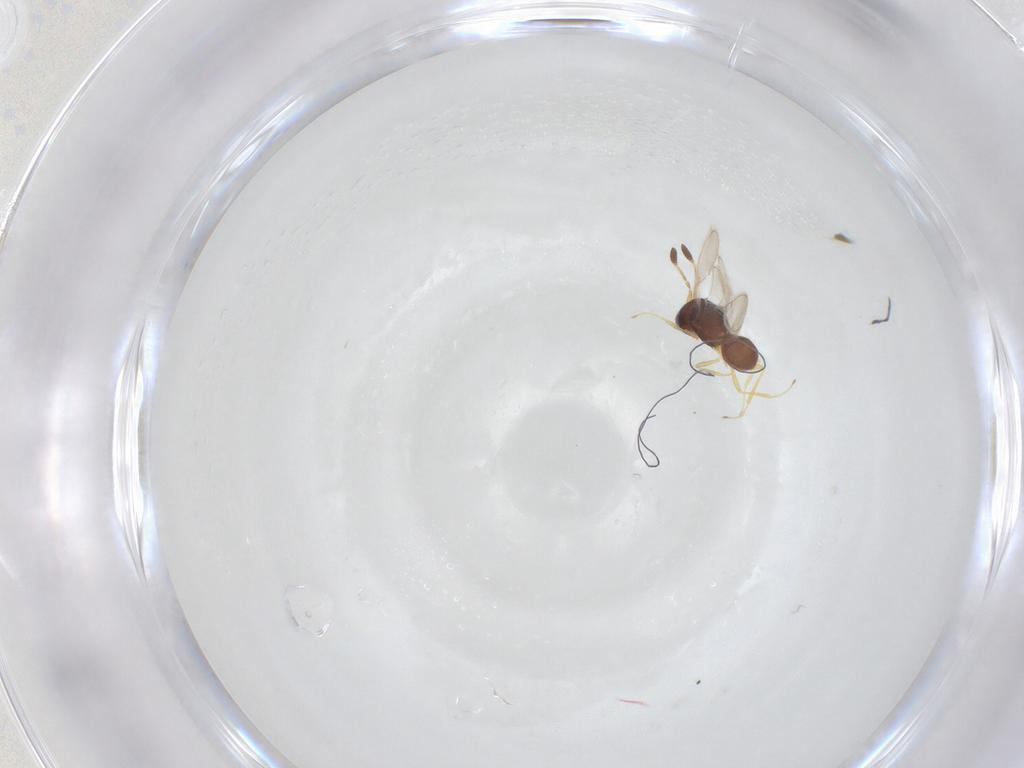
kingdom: Animalia
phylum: Arthropoda
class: Insecta
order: Hymenoptera
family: Scelionidae
